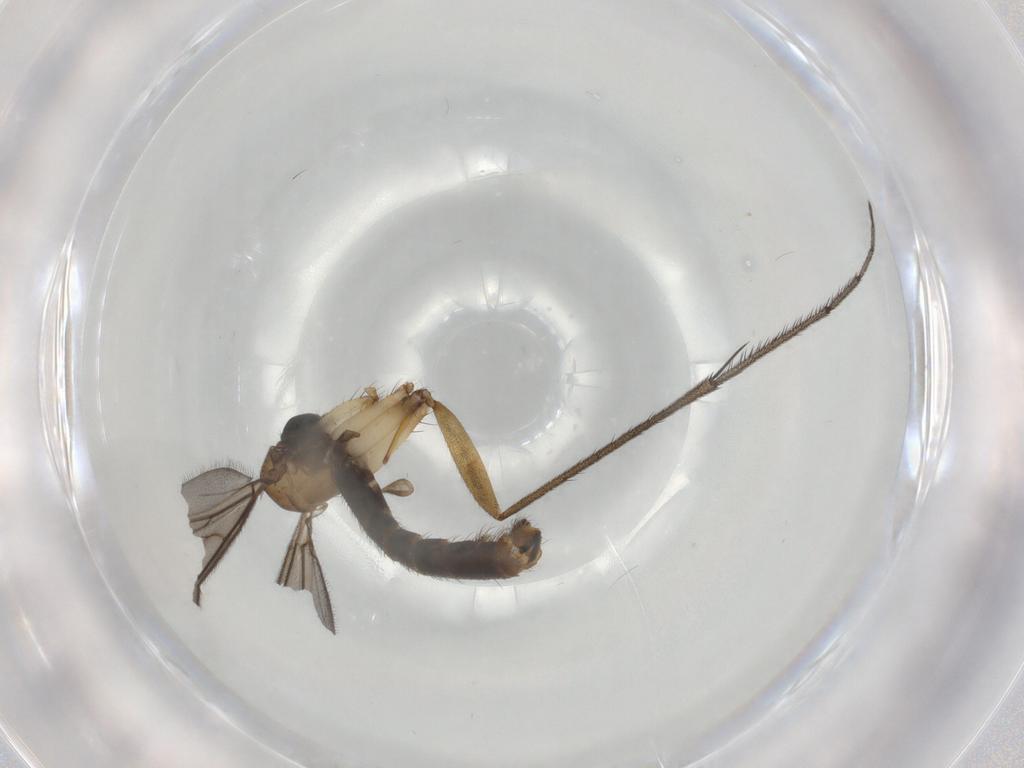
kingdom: Animalia
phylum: Arthropoda
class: Insecta
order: Diptera
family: Ditomyiidae
